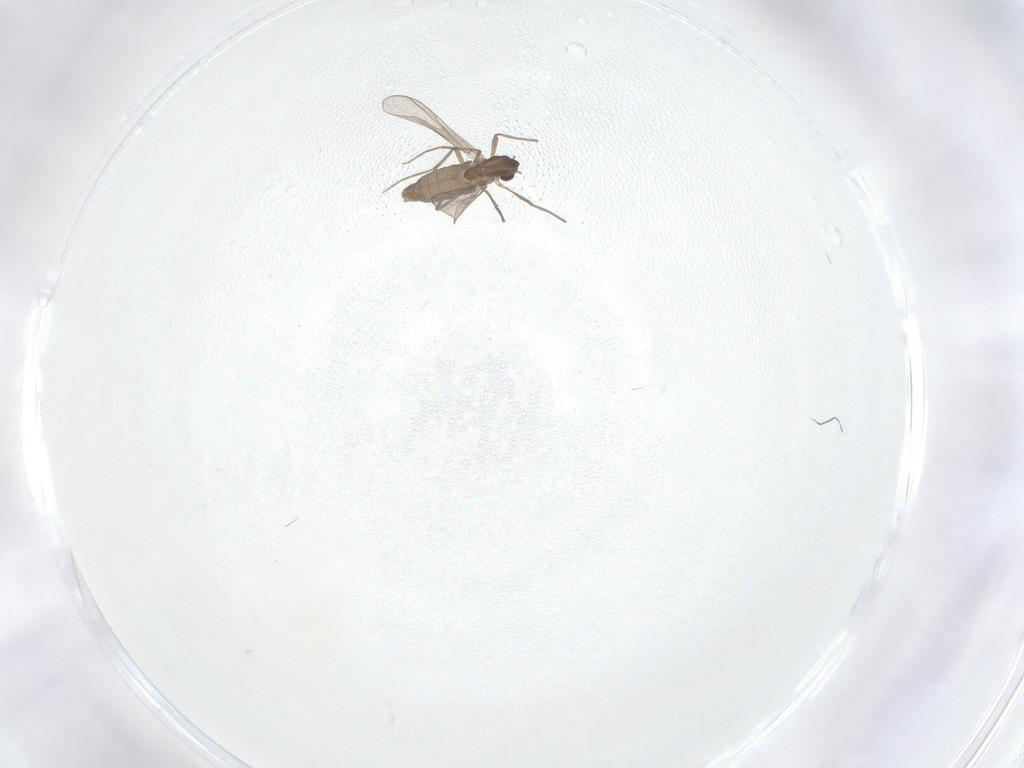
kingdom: Animalia
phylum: Arthropoda
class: Insecta
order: Diptera
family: Chironomidae
